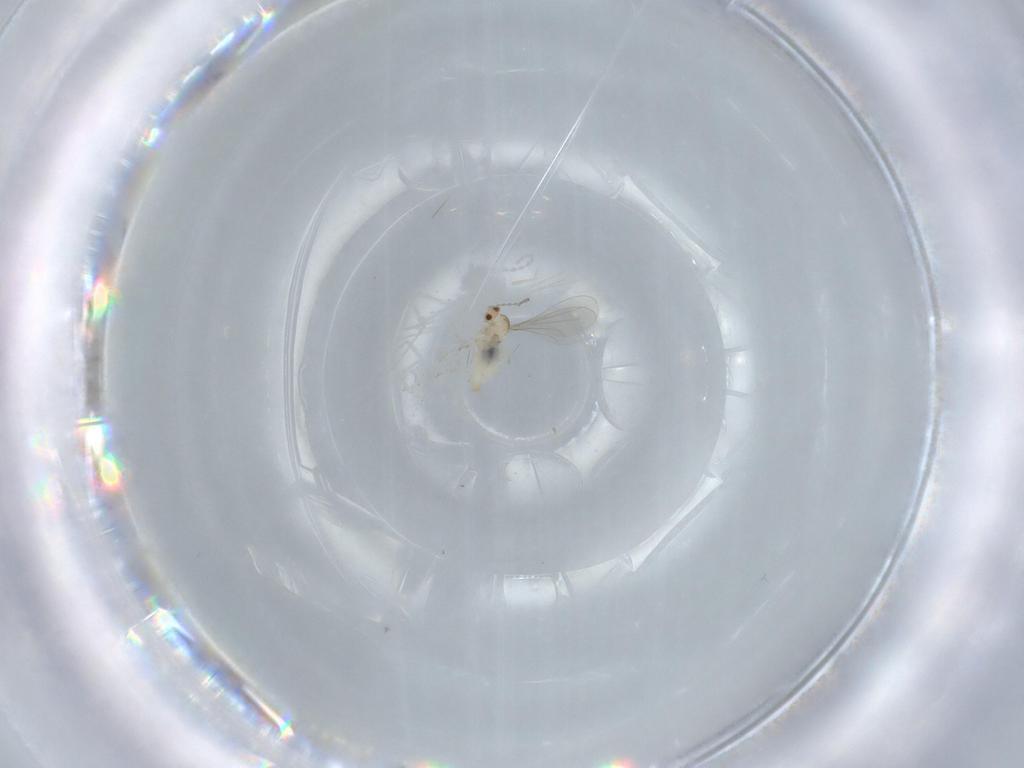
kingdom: Animalia
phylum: Arthropoda
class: Insecta
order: Diptera
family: Cecidomyiidae
